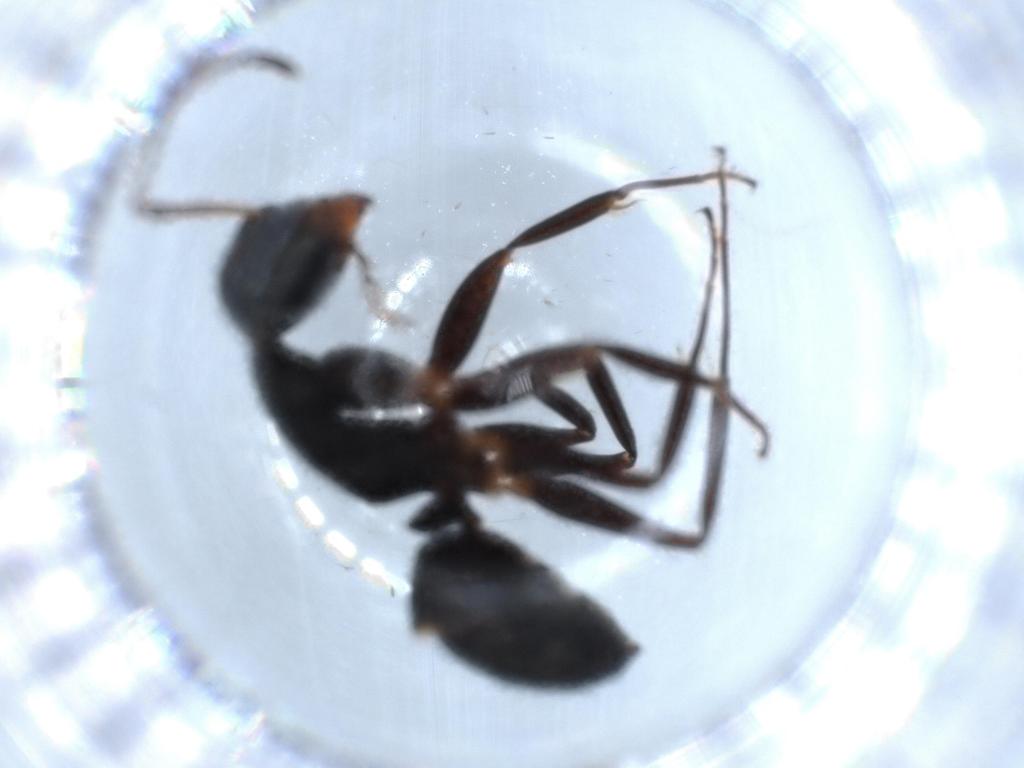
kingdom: Animalia
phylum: Arthropoda
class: Insecta
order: Hymenoptera
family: Formicidae
